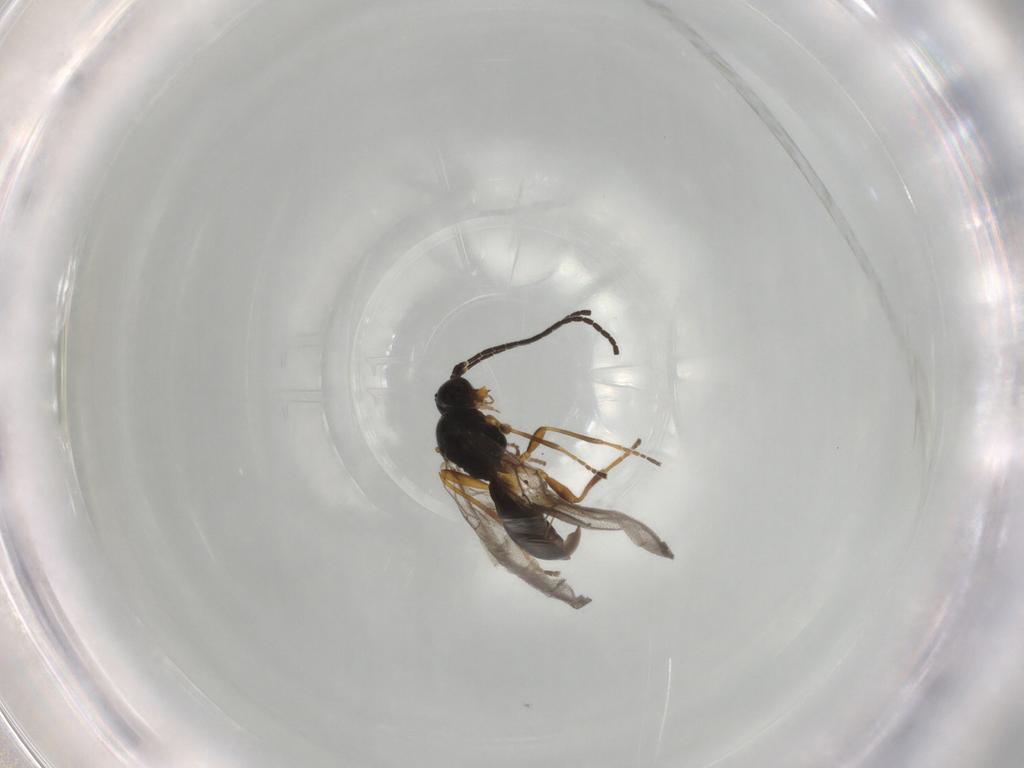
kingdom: Animalia
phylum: Arthropoda
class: Insecta
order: Hymenoptera
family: Braconidae
